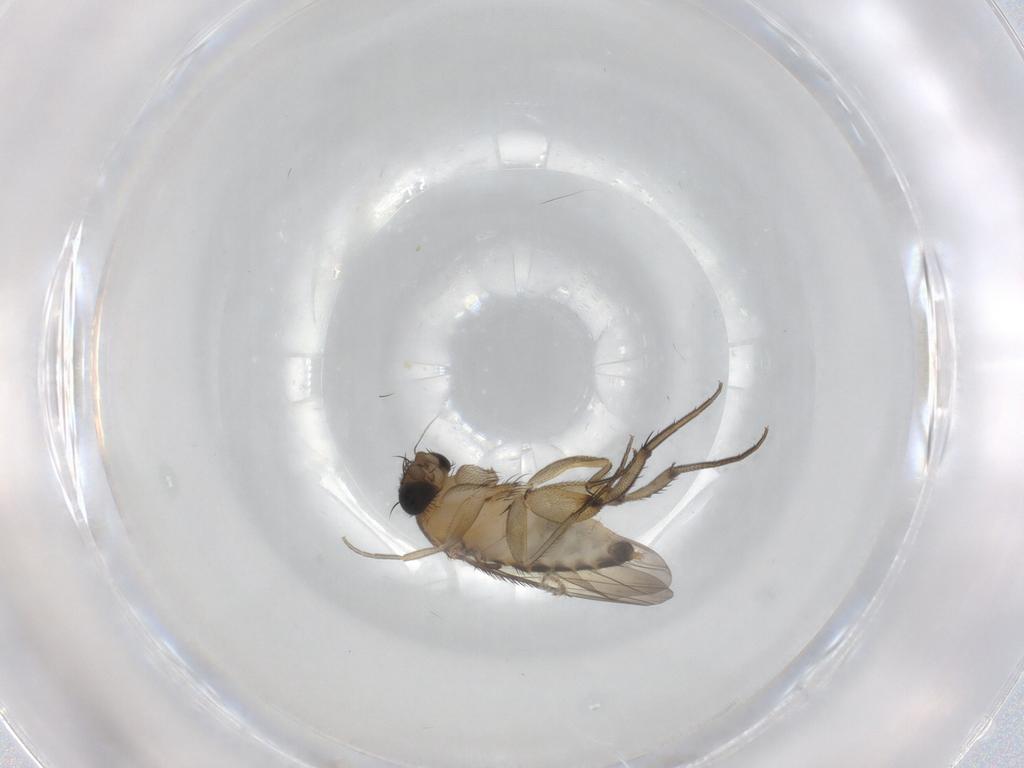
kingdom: Animalia
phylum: Arthropoda
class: Insecta
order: Diptera
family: Phoridae
